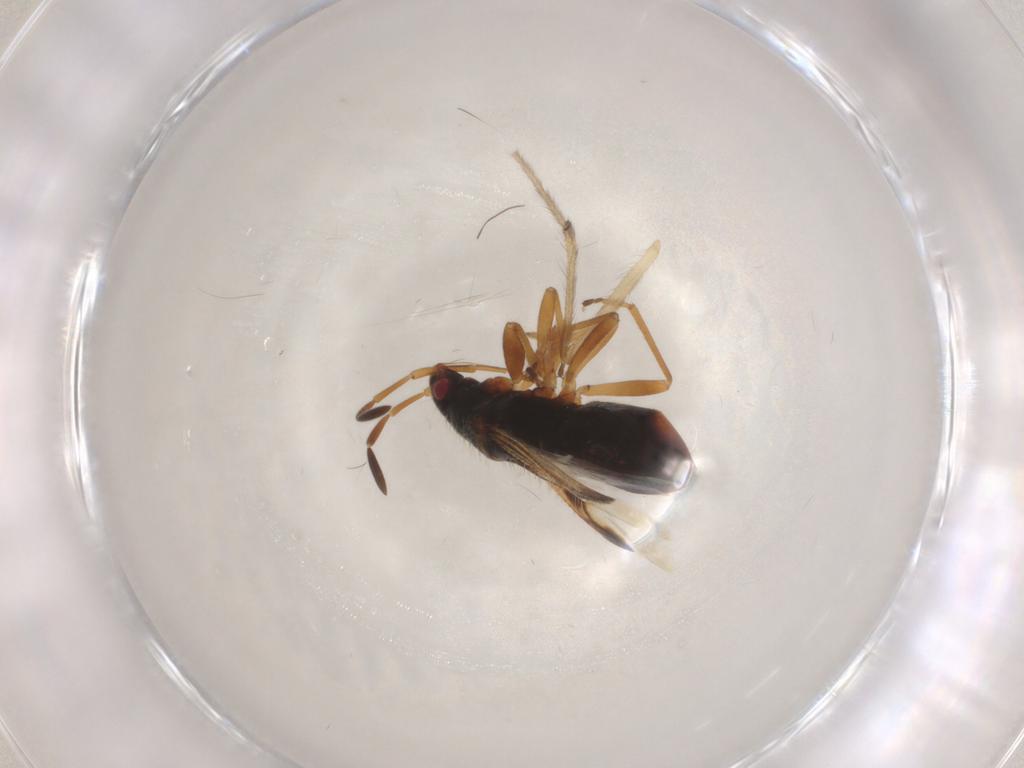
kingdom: Animalia
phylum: Arthropoda
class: Insecta
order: Hemiptera
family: Rhyparochromidae
